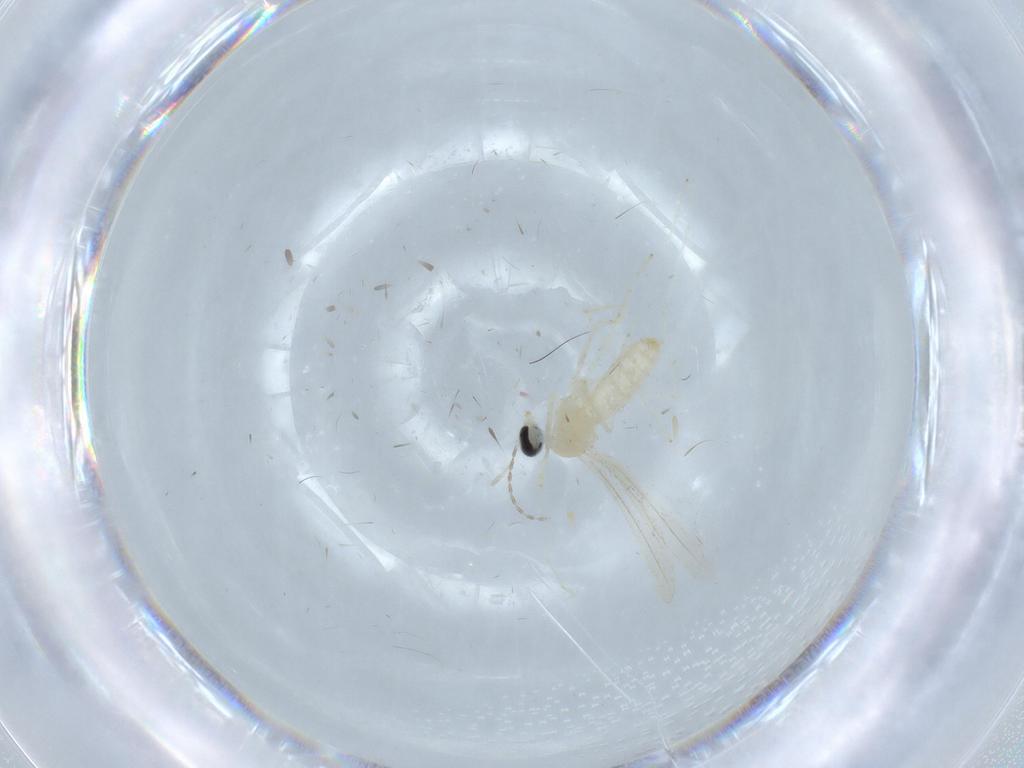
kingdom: Animalia
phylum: Arthropoda
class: Insecta
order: Diptera
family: Cecidomyiidae
